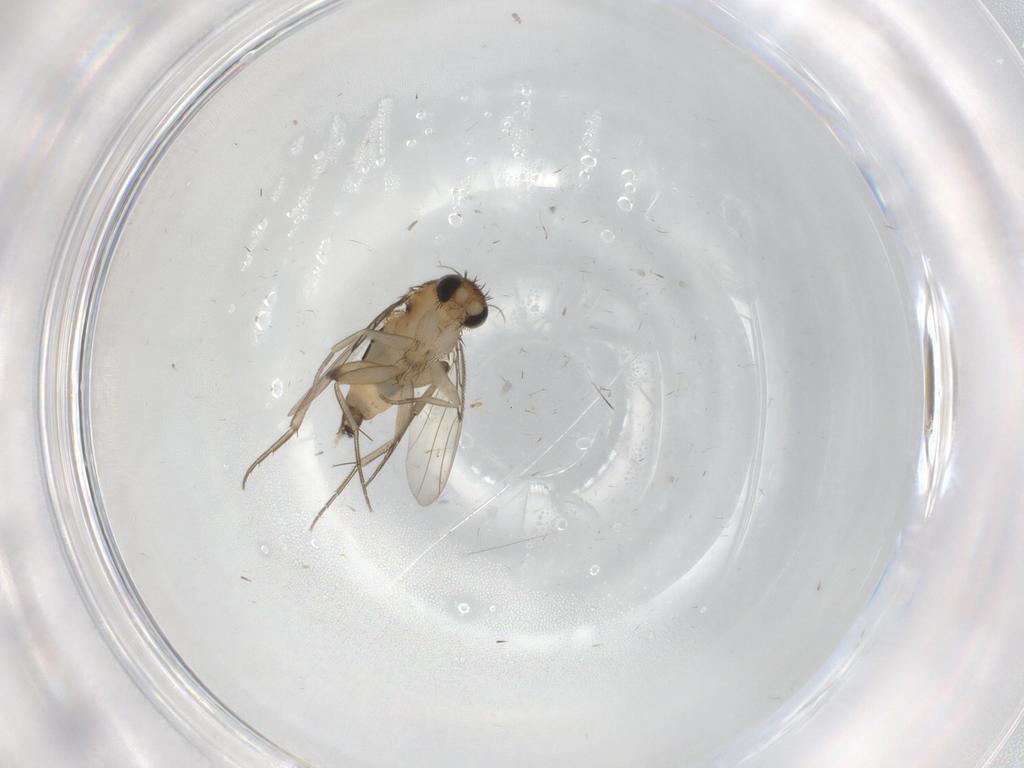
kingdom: Animalia
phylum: Arthropoda
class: Insecta
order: Diptera
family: Phoridae
